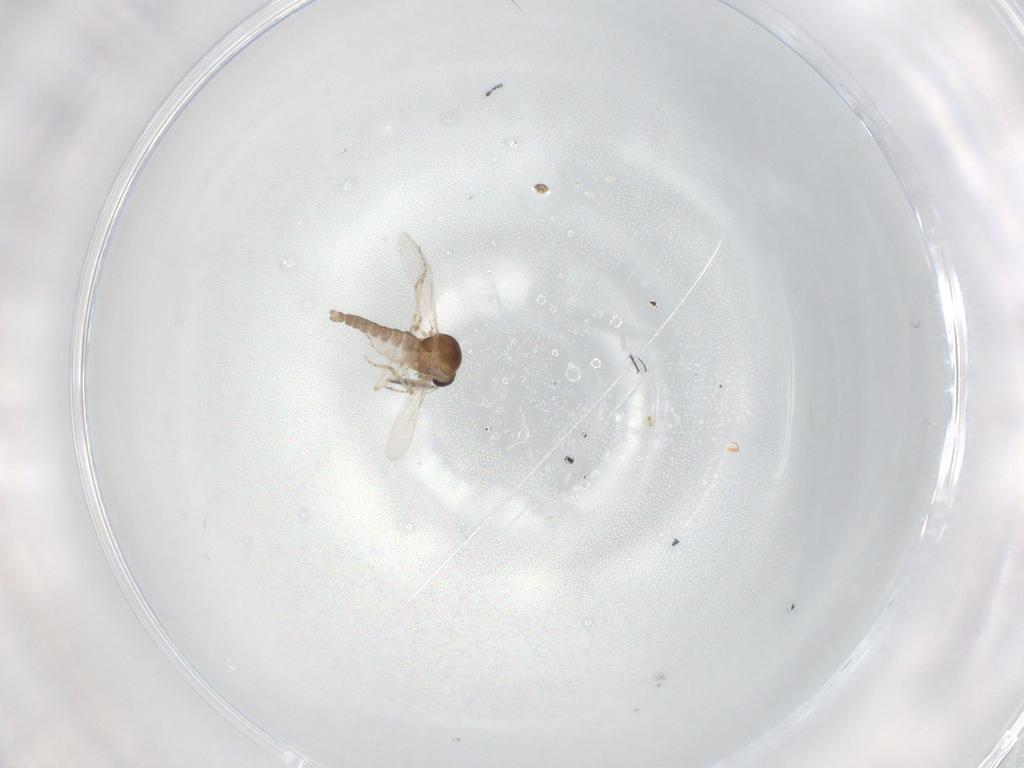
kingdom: Animalia
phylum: Arthropoda
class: Insecta
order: Diptera
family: Ceratopogonidae
